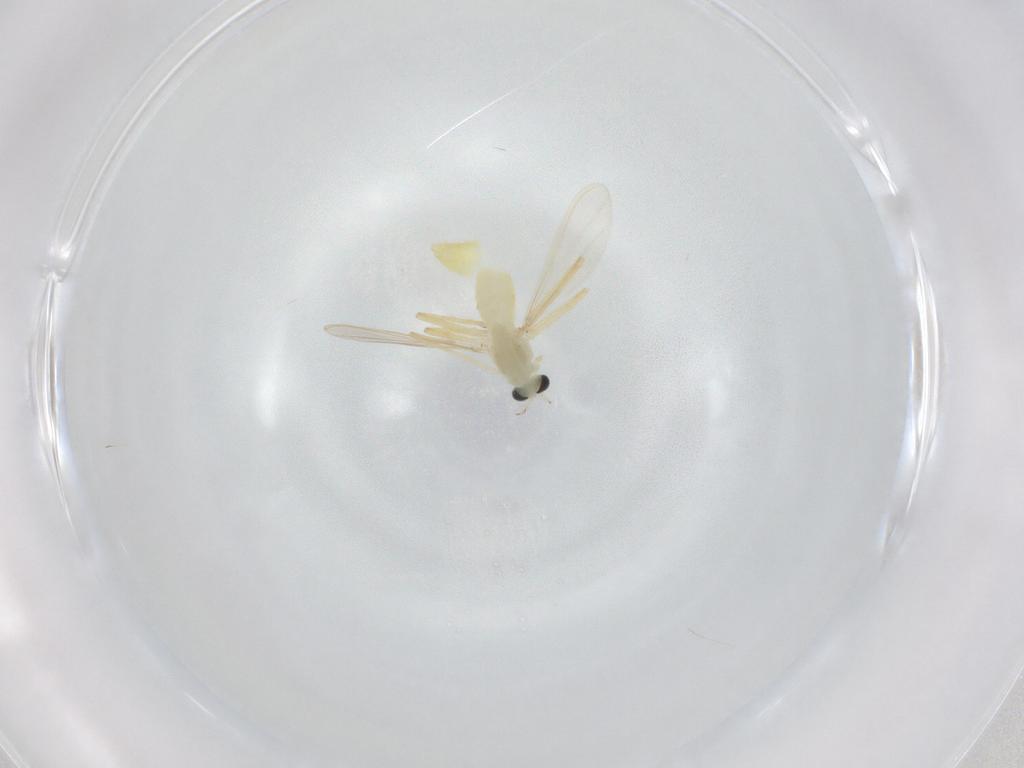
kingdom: Animalia
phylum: Arthropoda
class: Insecta
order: Diptera
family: Sciaridae
